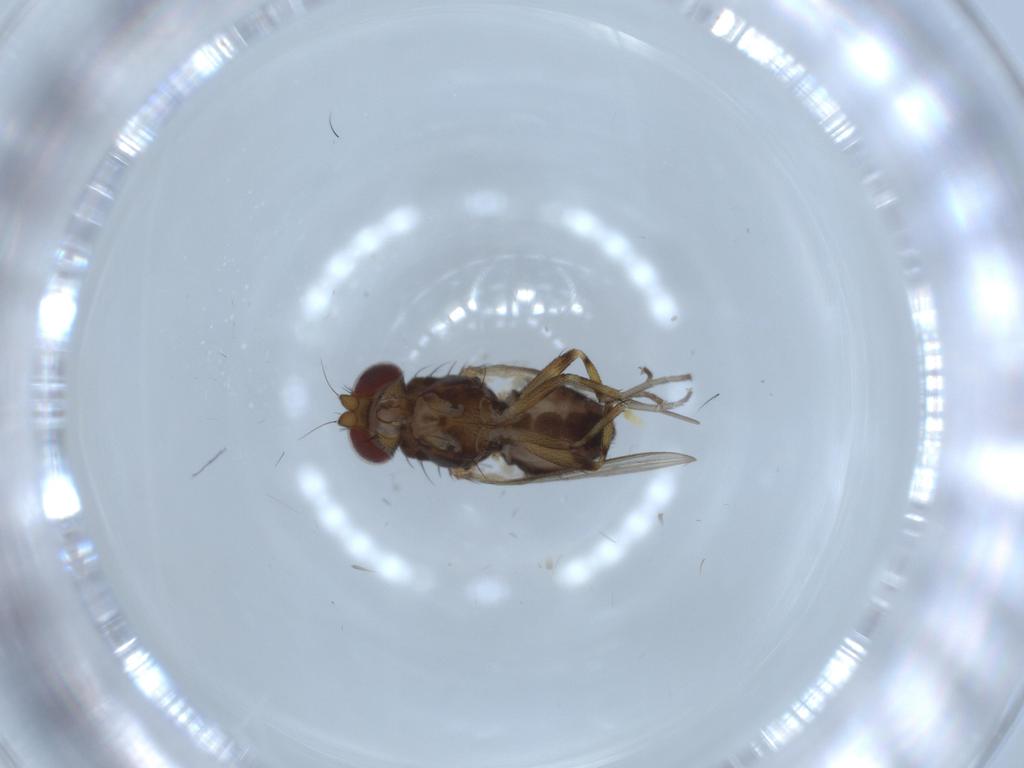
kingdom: Animalia
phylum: Arthropoda
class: Insecta
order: Diptera
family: Heleomyzidae
